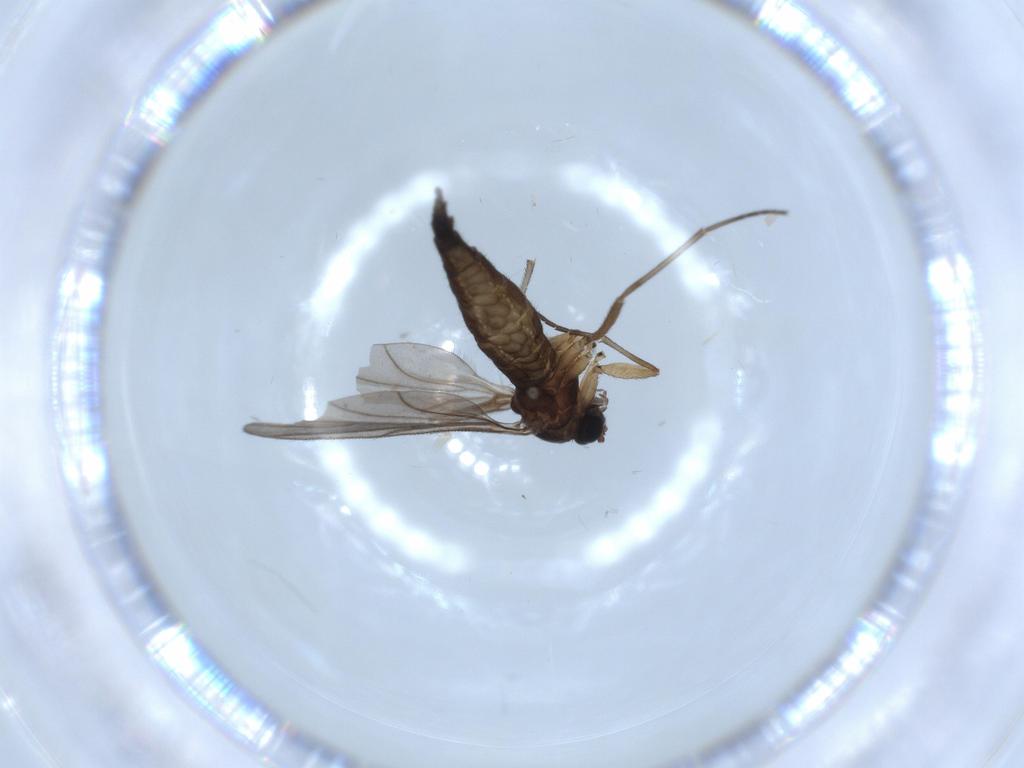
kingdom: Animalia
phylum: Arthropoda
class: Insecta
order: Diptera
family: Sciaridae
